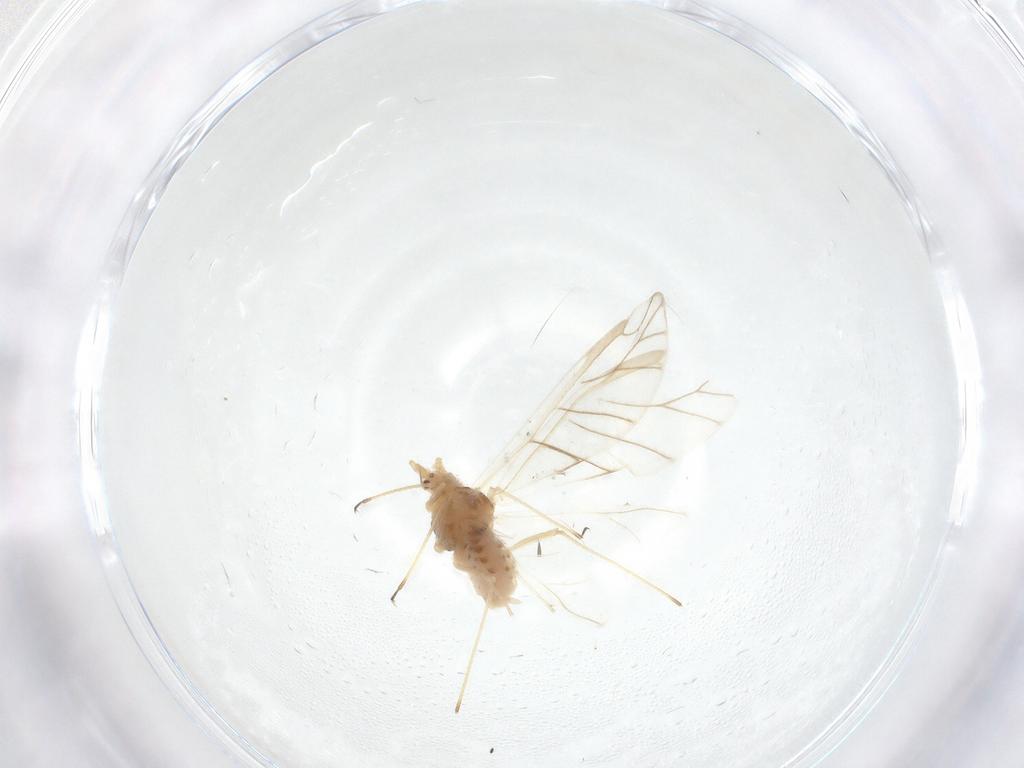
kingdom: Animalia
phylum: Arthropoda
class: Insecta
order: Hemiptera
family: Aphididae
